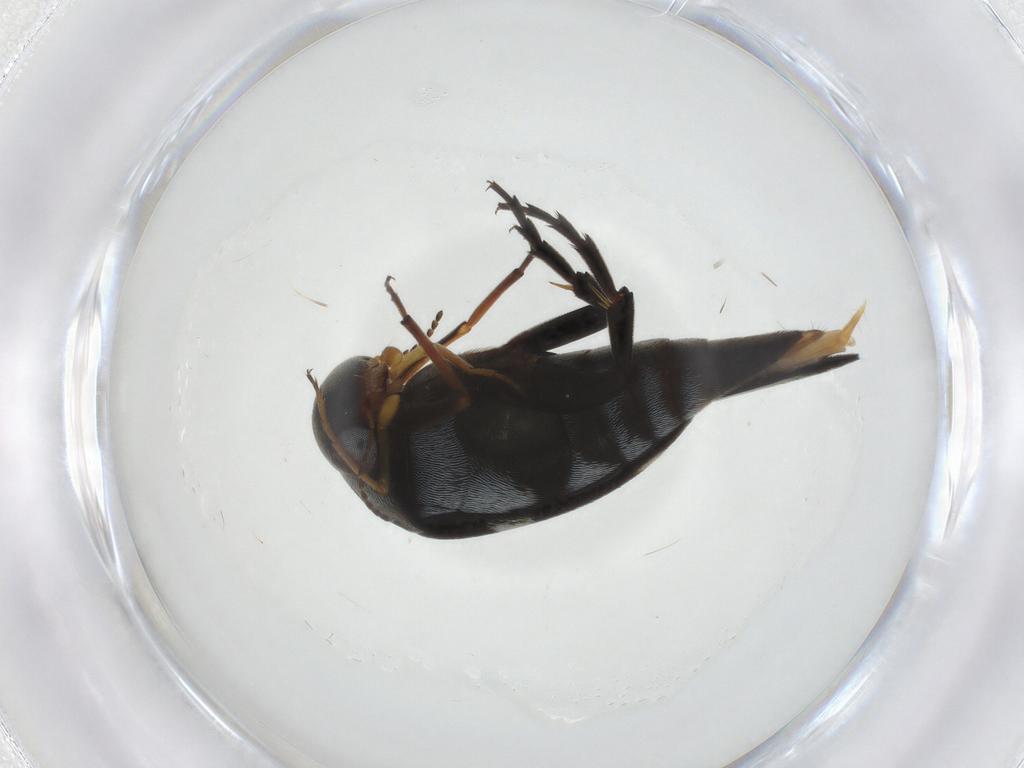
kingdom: Animalia
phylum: Arthropoda
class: Insecta
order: Coleoptera
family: Mordellidae
